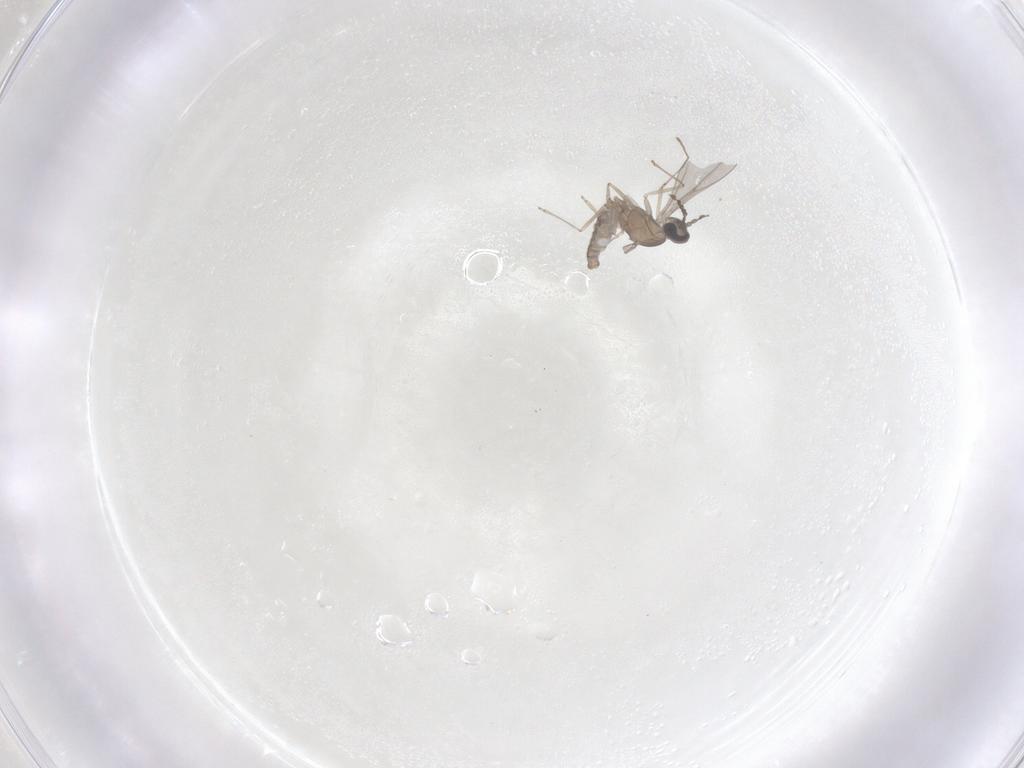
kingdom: Animalia
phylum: Arthropoda
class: Insecta
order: Diptera
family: Cecidomyiidae
